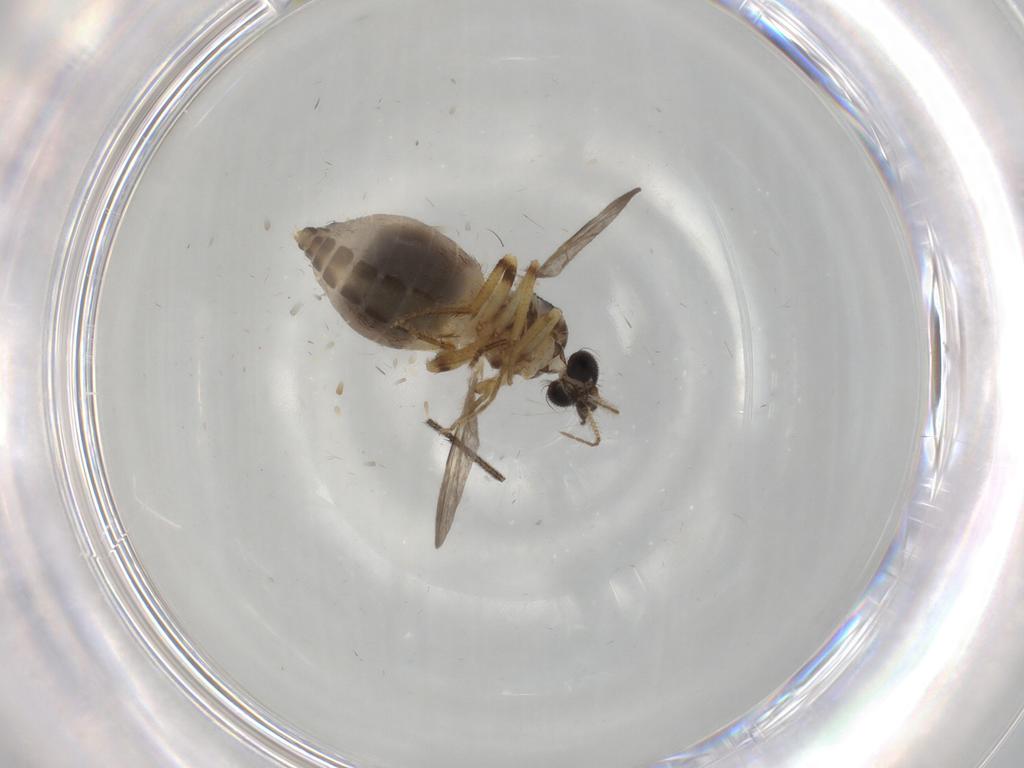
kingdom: Animalia
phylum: Arthropoda
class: Insecta
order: Diptera
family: Ceratopogonidae
